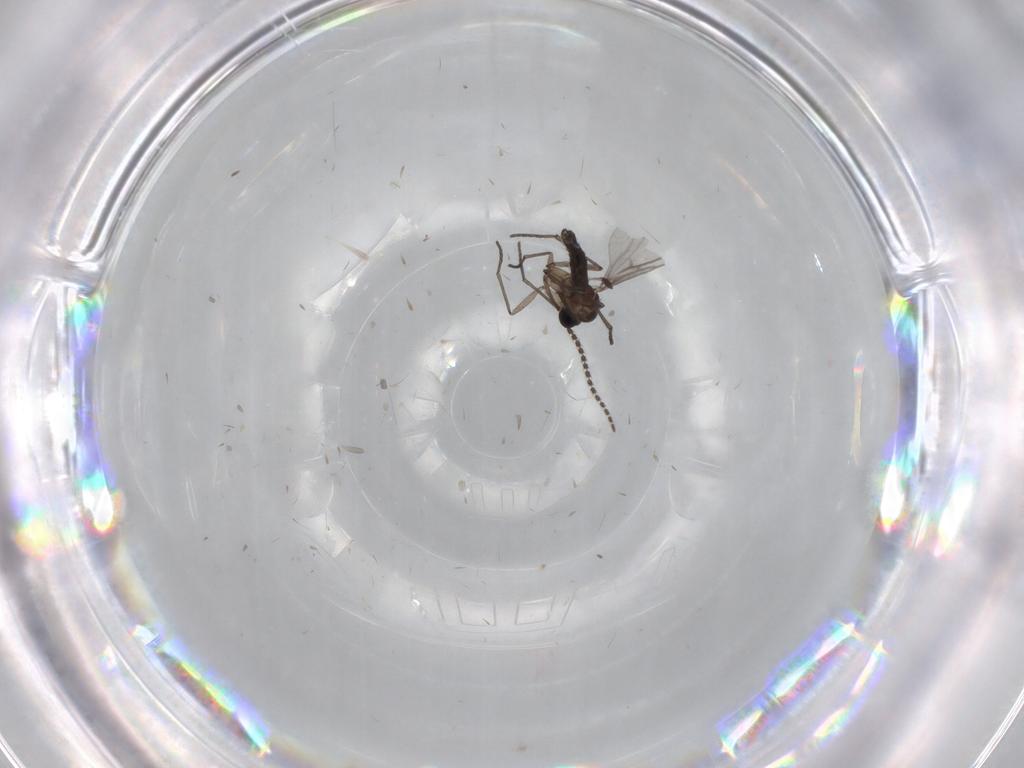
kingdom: Animalia
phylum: Arthropoda
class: Insecta
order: Diptera
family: Sciaridae
